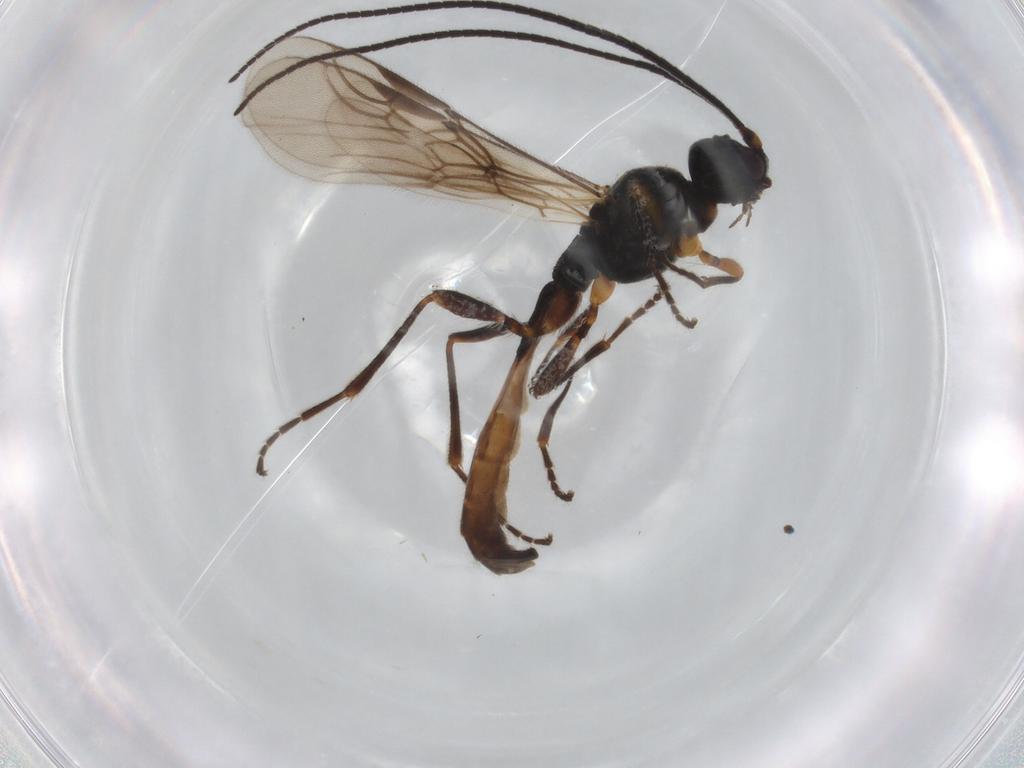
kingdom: Animalia
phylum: Arthropoda
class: Insecta
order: Hymenoptera
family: Braconidae
